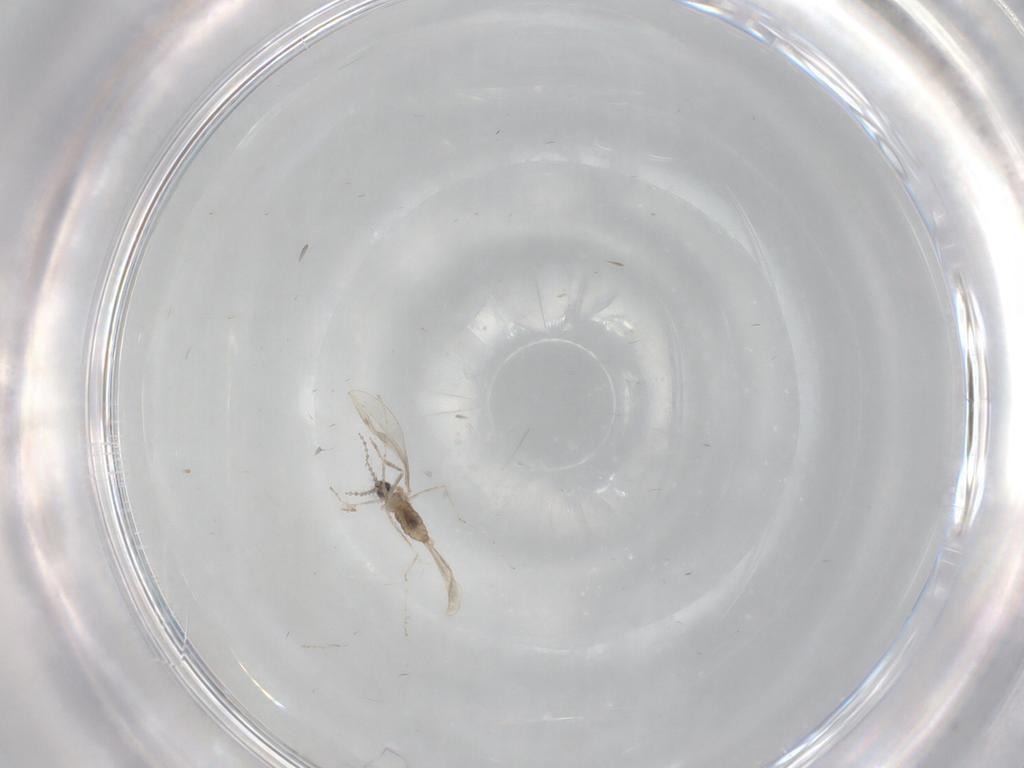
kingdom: Animalia
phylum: Arthropoda
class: Insecta
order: Diptera
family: Cecidomyiidae
